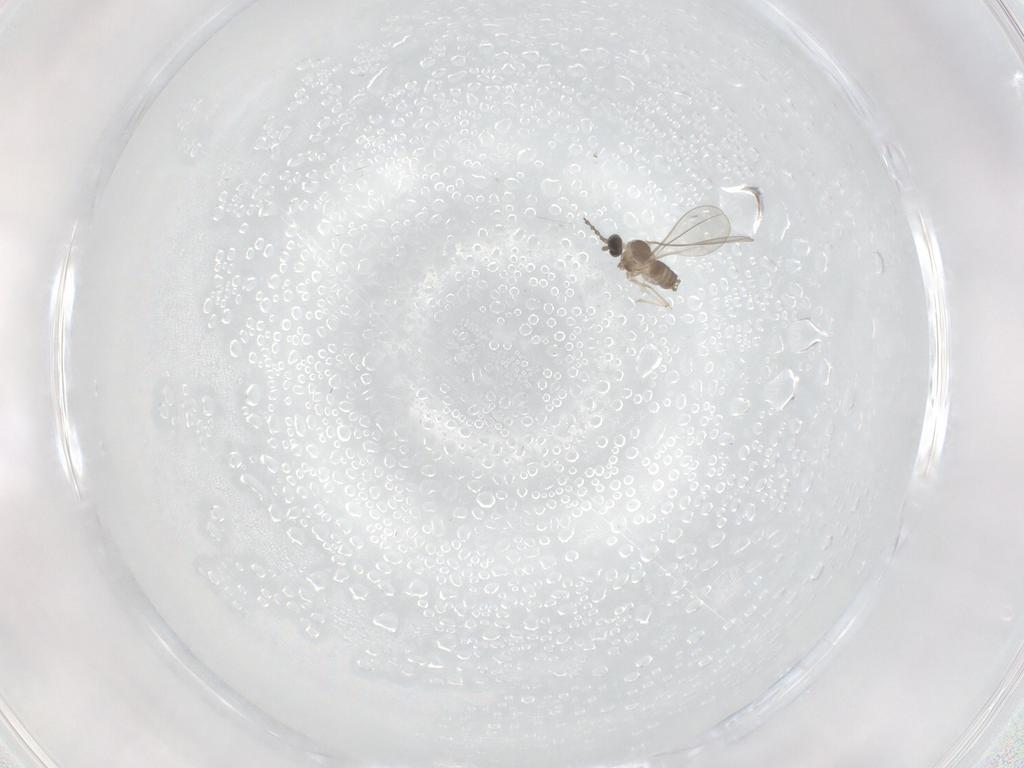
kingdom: Animalia
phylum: Arthropoda
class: Insecta
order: Diptera
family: Cecidomyiidae
